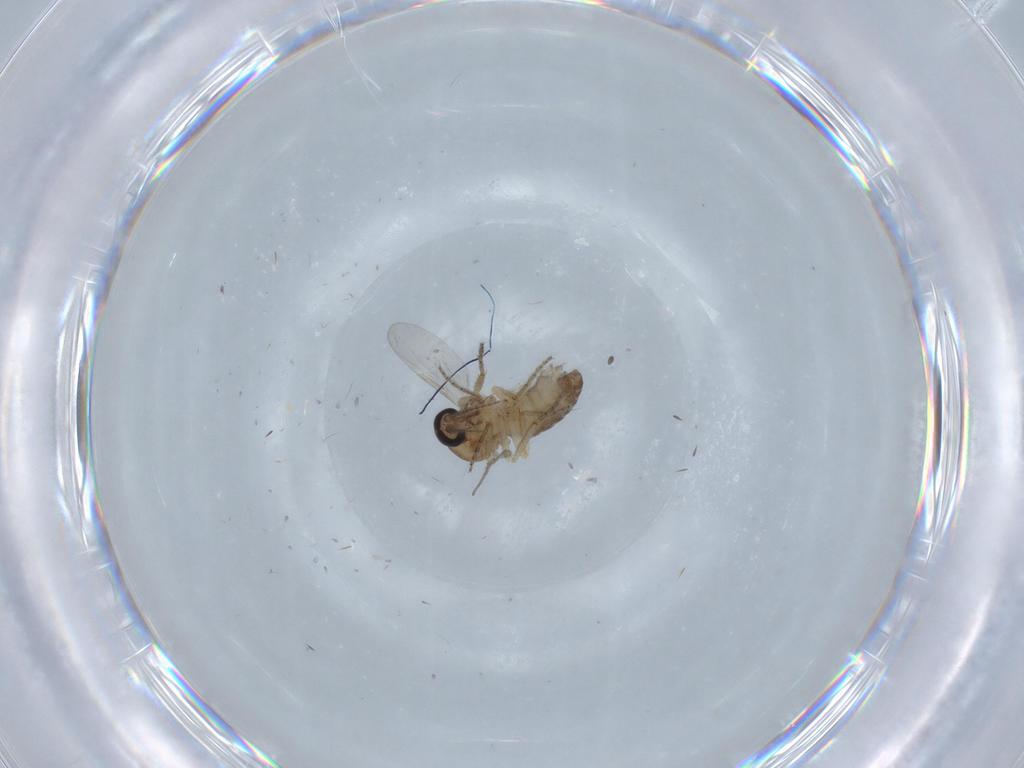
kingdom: Animalia
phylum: Arthropoda
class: Insecta
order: Diptera
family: Ceratopogonidae
